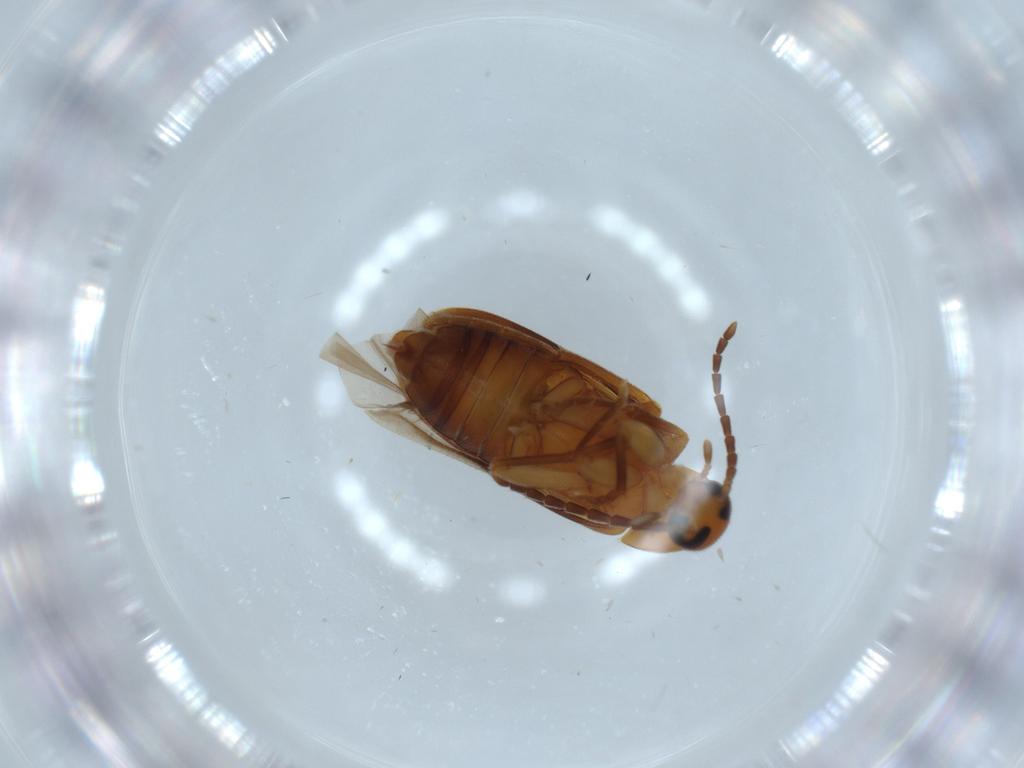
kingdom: Animalia
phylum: Arthropoda
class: Insecta
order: Coleoptera
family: Scraptiidae
